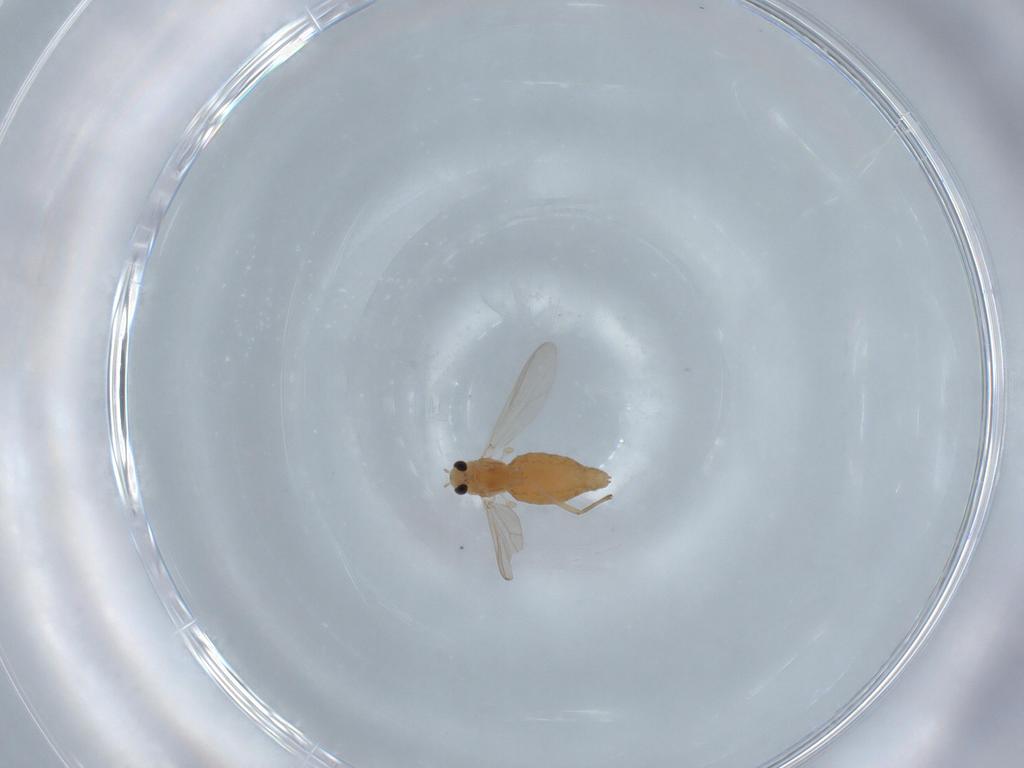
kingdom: Animalia
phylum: Arthropoda
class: Insecta
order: Diptera
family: Chironomidae
